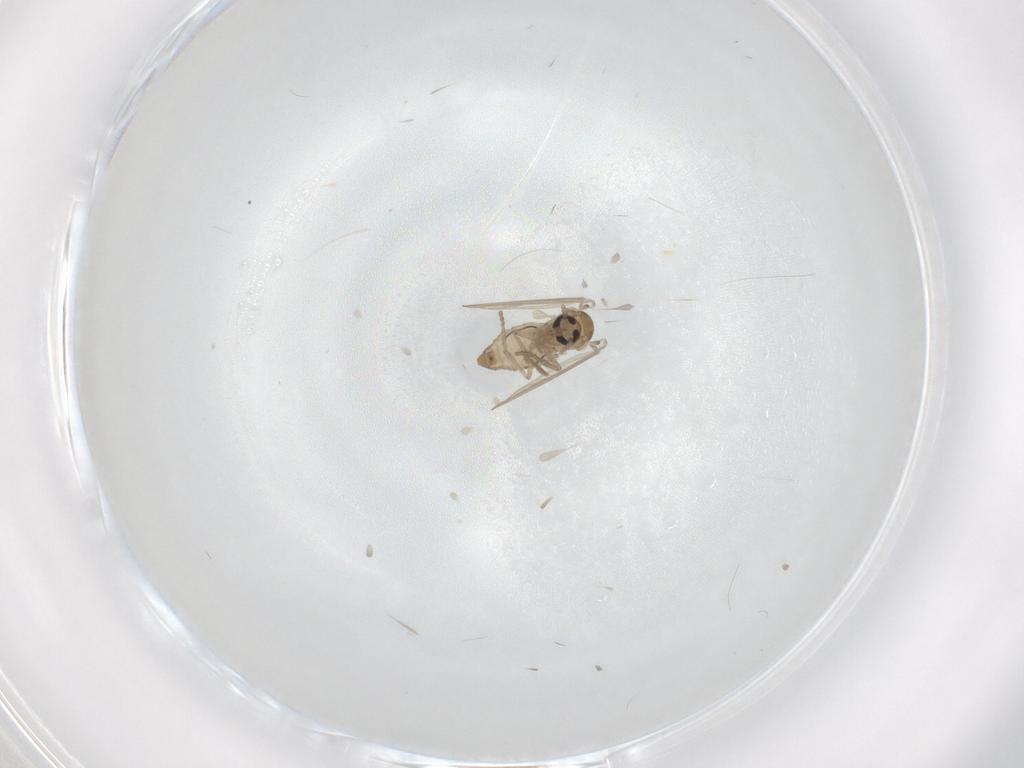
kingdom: Animalia
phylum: Arthropoda
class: Insecta
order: Diptera
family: Psychodidae
